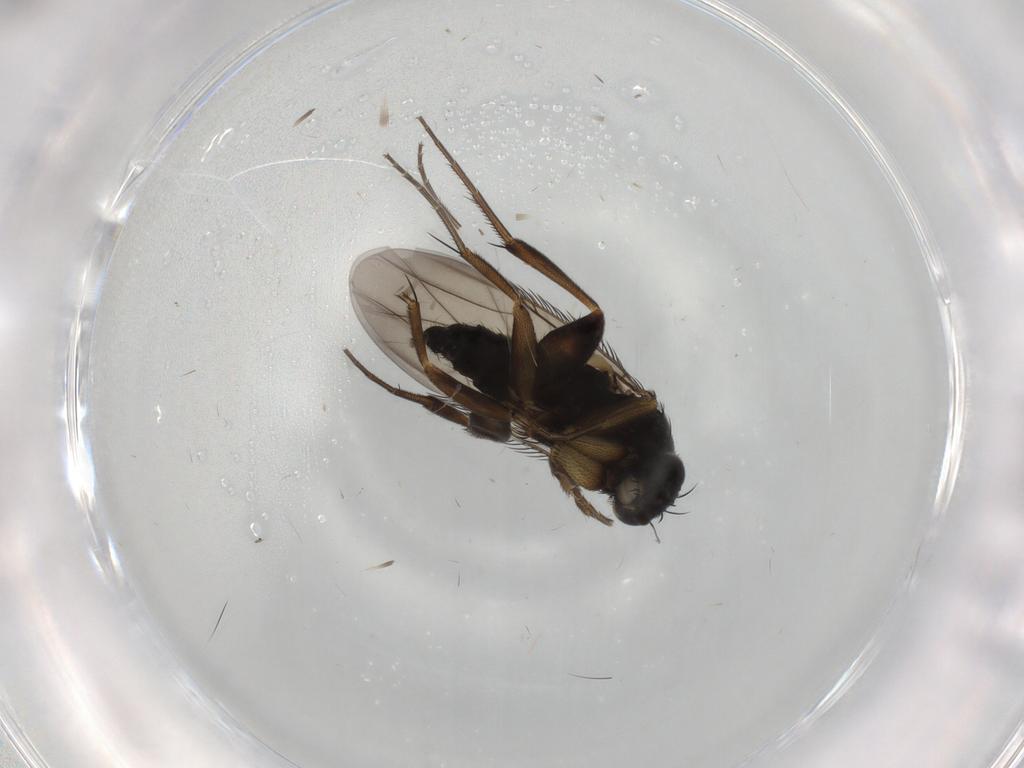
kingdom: Animalia
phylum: Arthropoda
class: Insecta
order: Diptera
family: Phoridae
